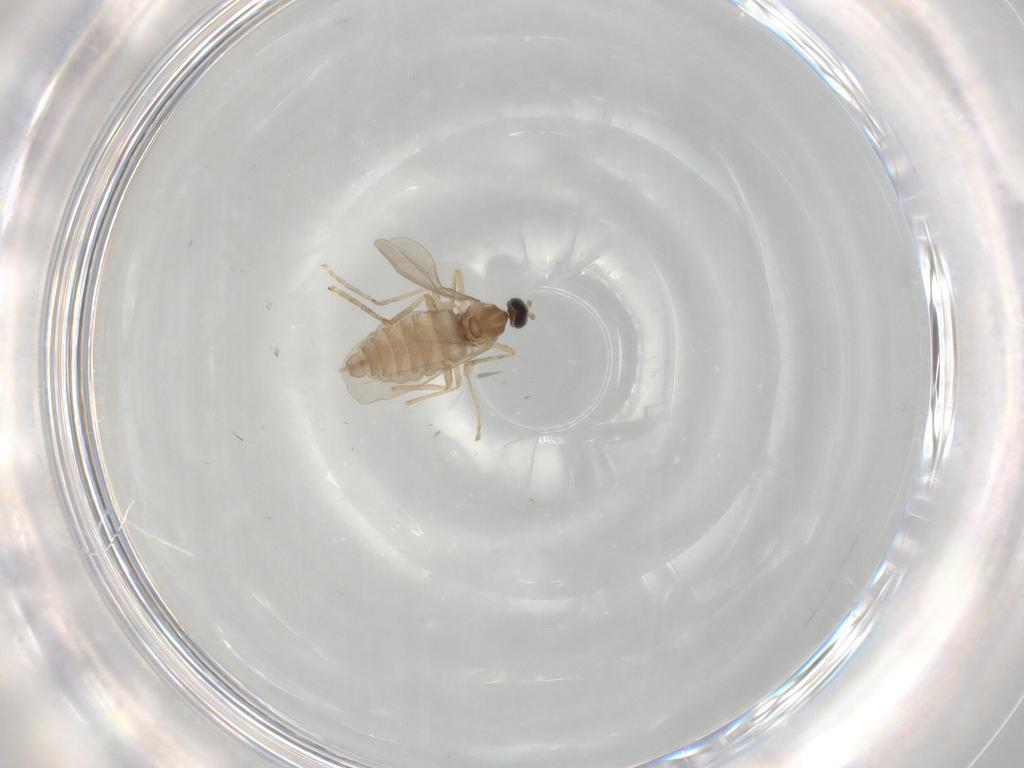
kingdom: Animalia
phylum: Arthropoda
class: Insecta
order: Diptera
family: Cecidomyiidae
